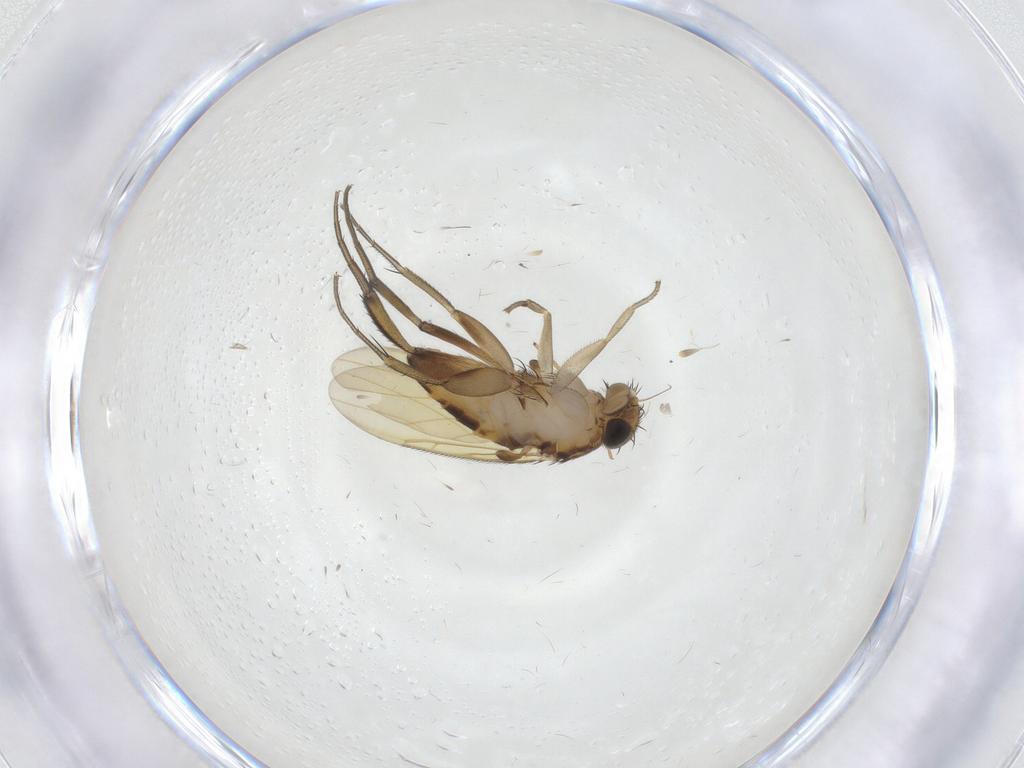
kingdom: Animalia
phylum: Arthropoda
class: Insecta
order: Diptera
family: Phoridae
